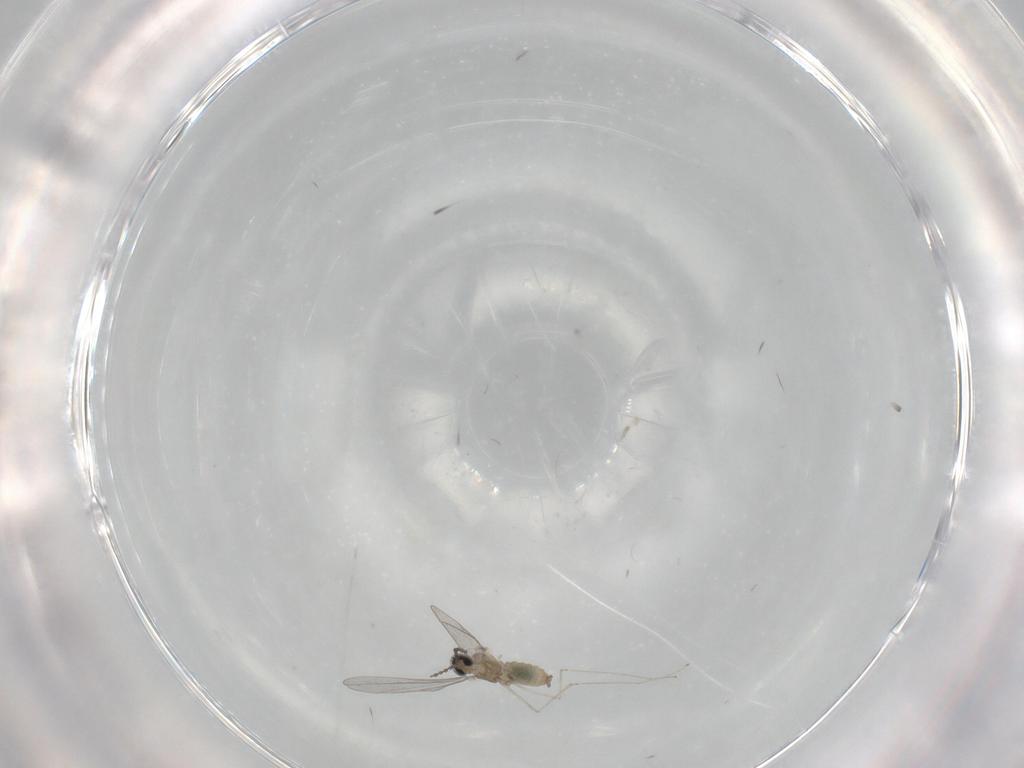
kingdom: Animalia
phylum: Arthropoda
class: Insecta
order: Diptera
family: Cecidomyiidae
